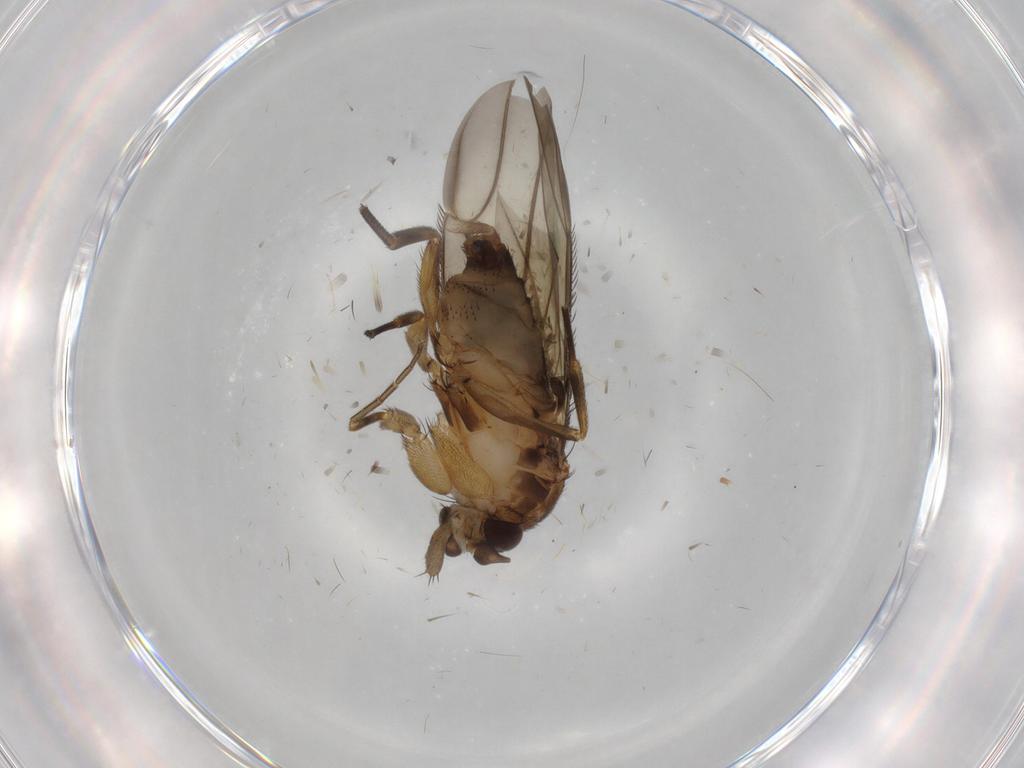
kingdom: Animalia
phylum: Arthropoda
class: Insecta
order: Diptera
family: Phoridae
